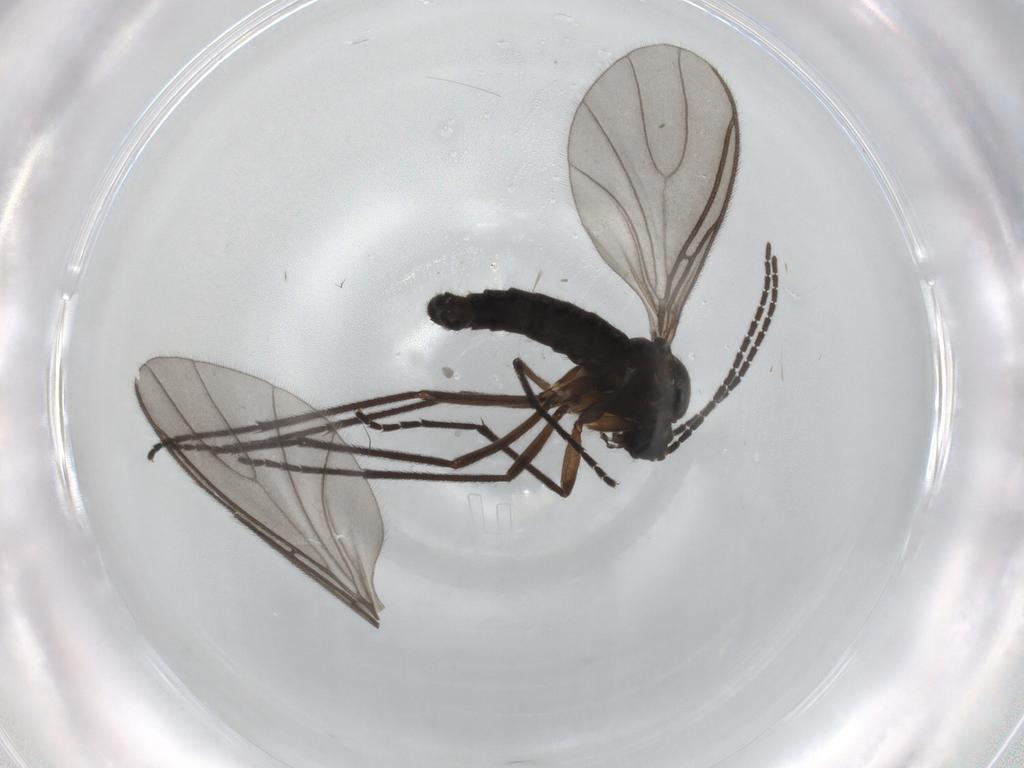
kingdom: Animalia
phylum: Arthropoda
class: Insecta
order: Diptera
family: Sciaridae
